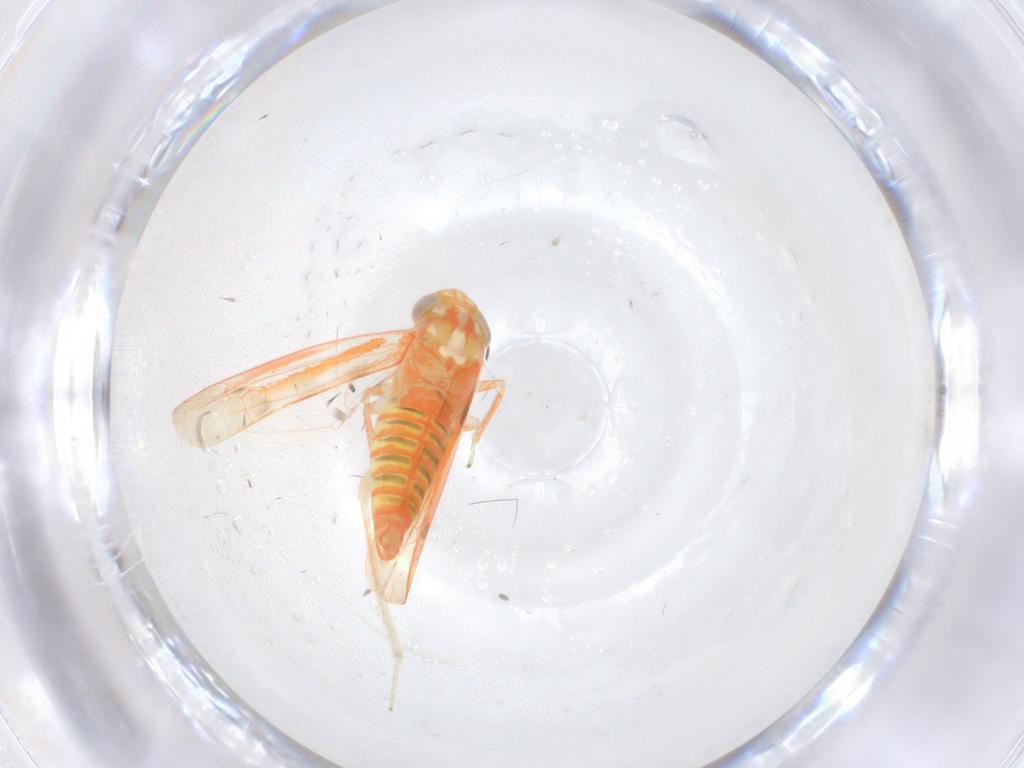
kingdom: Animalia
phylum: Arthropoda
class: Insecta
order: Hemiptera
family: Cicadellidae
